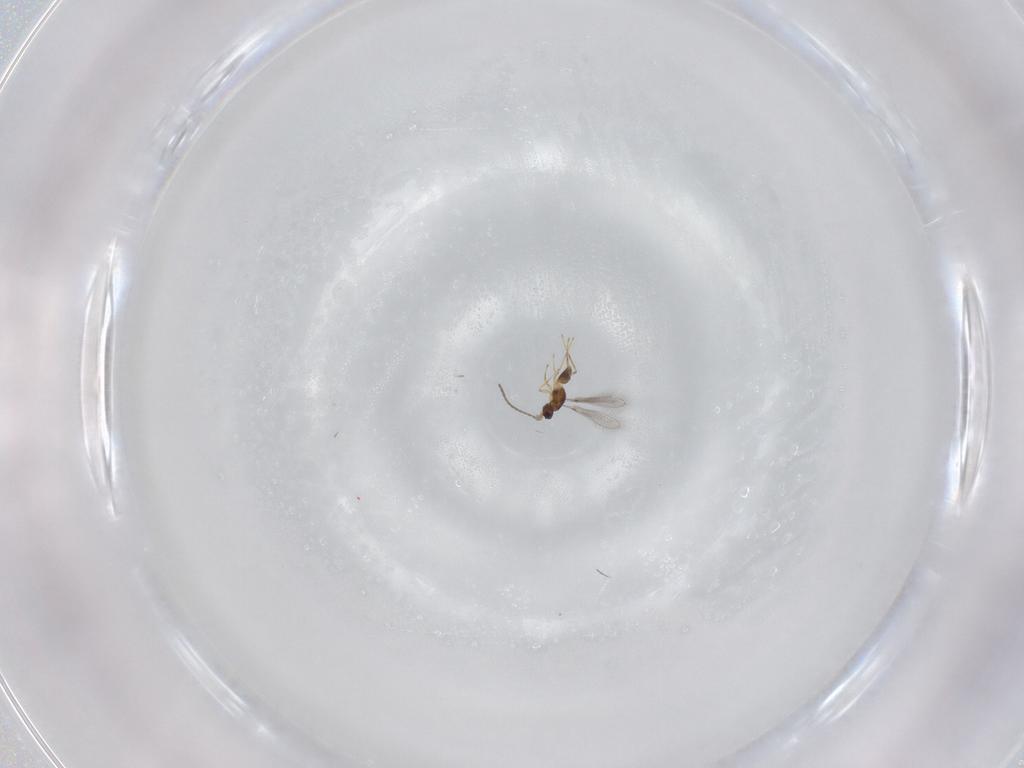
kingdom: Animalia
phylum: Arthropoda
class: Insecta
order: Hymenoptera
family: Mymaridae
